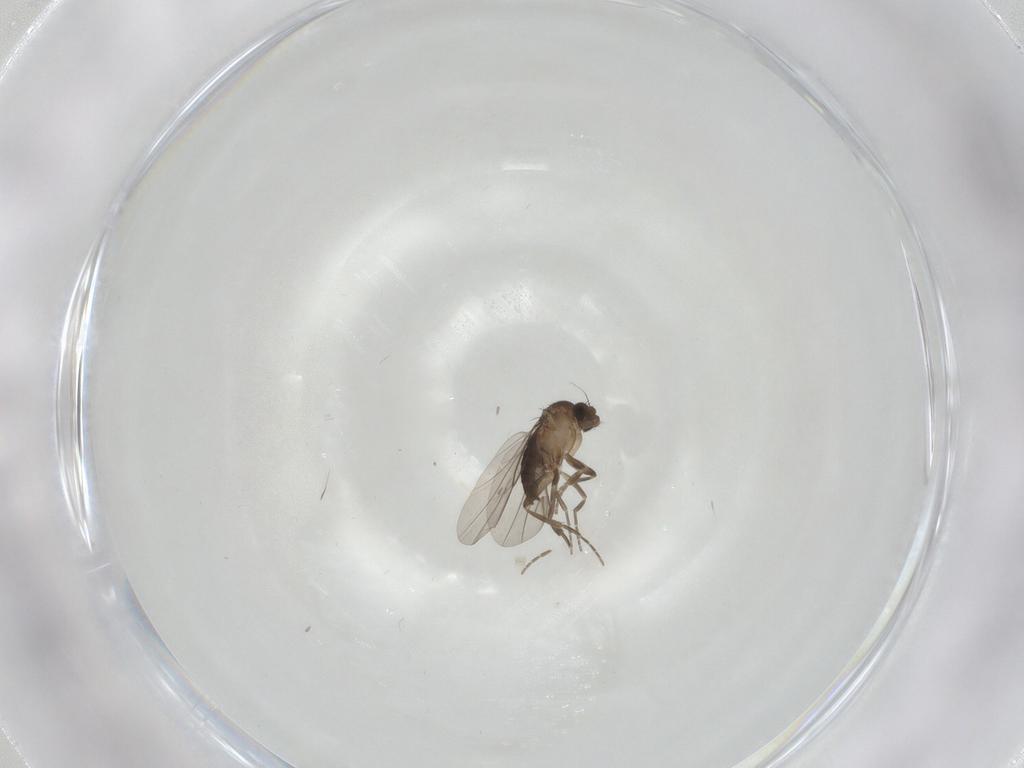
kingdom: Animalia
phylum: Arthropoda
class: Insecta
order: Diptera
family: Phoridae
